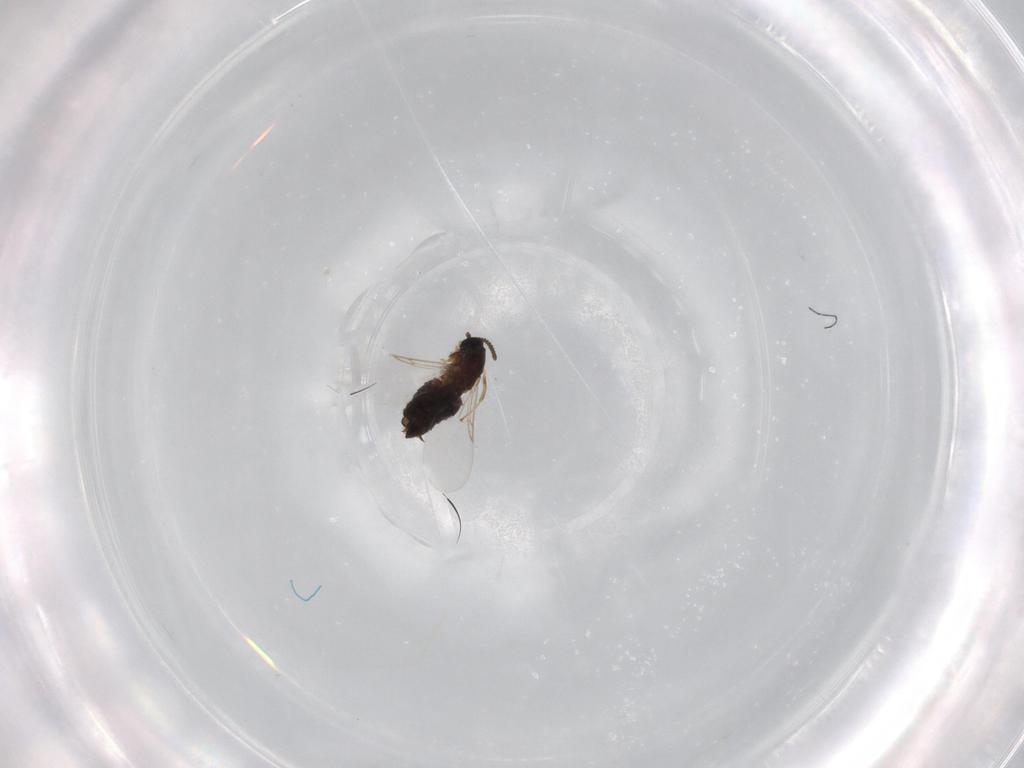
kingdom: Animalia
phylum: Arthropoda
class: Insecta
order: Diptera
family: Scatopsidae
